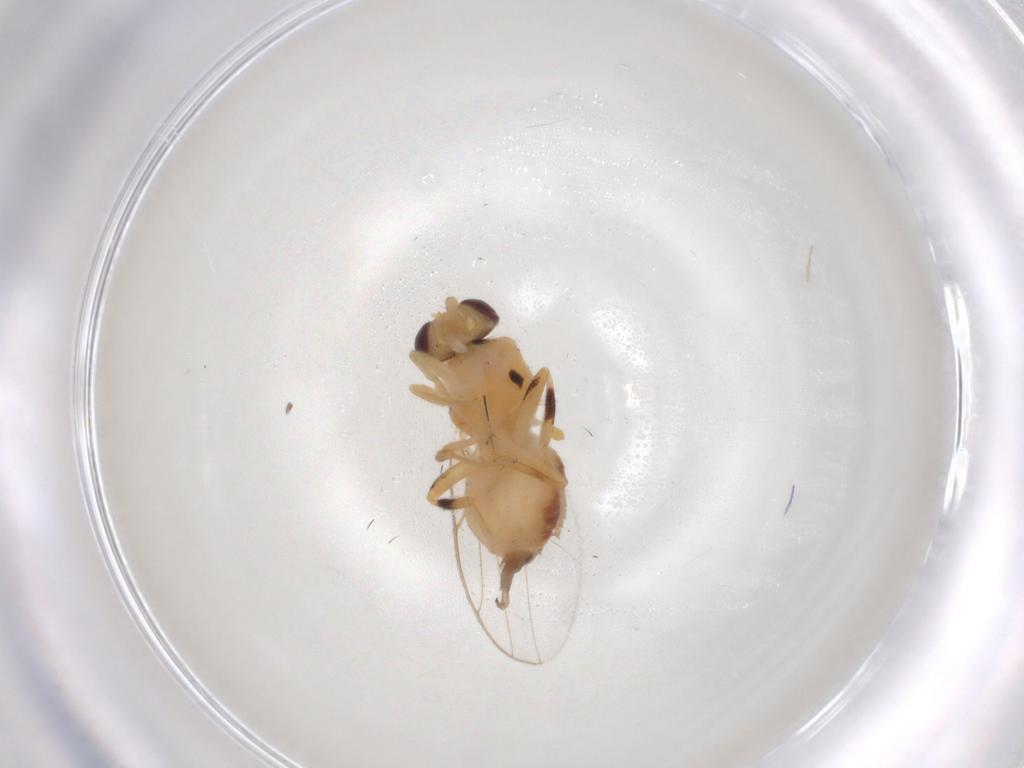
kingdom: Animalia
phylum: Arthropoda
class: Insecta
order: Diptera
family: Chloropidae
